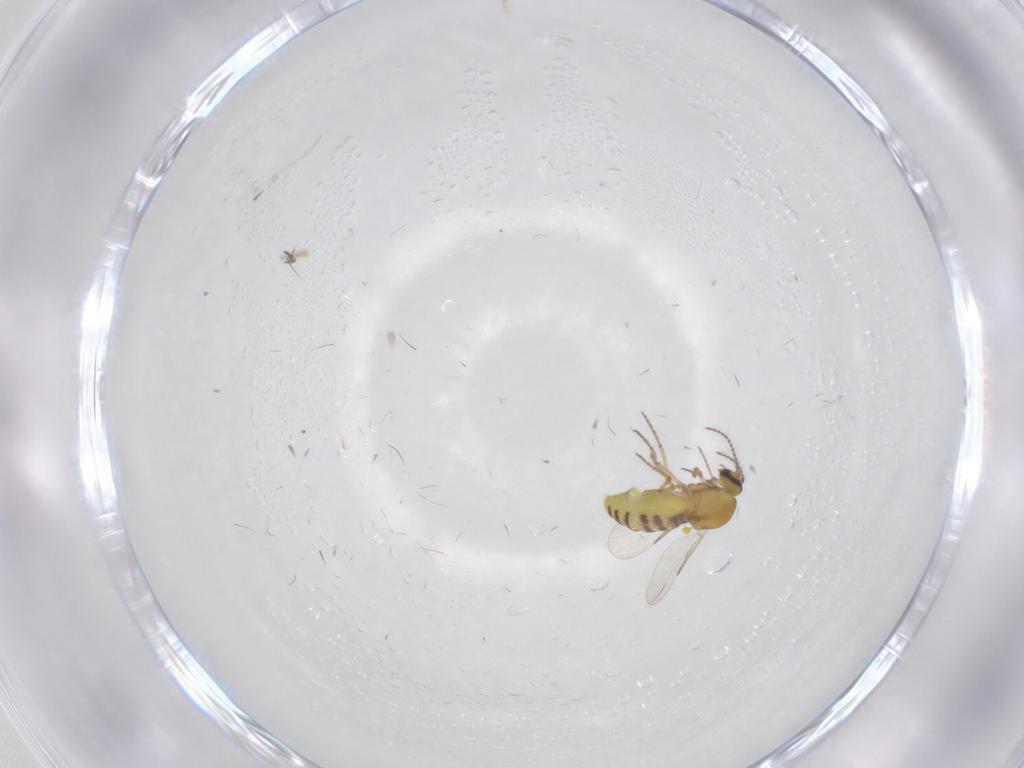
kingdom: Animalia
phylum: Arthropoda
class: Insecta
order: Diptera
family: Ceratopogonidae
